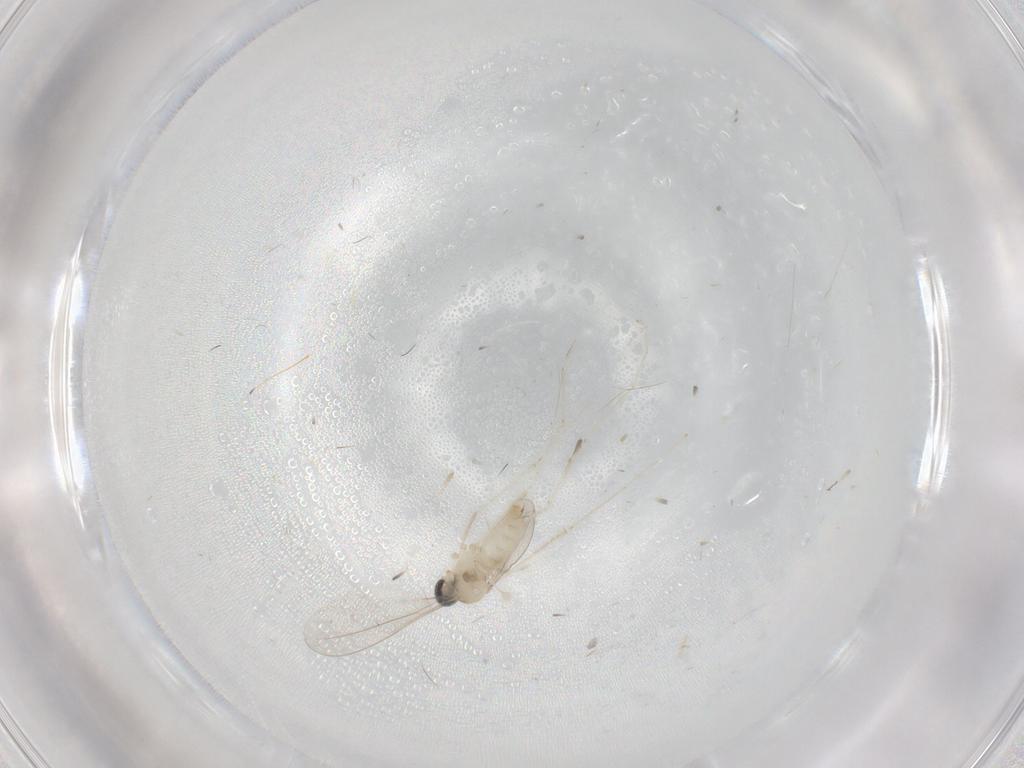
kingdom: Animalia
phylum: Arthropoda
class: Insecta
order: Diptera
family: Cecidomyiidae
